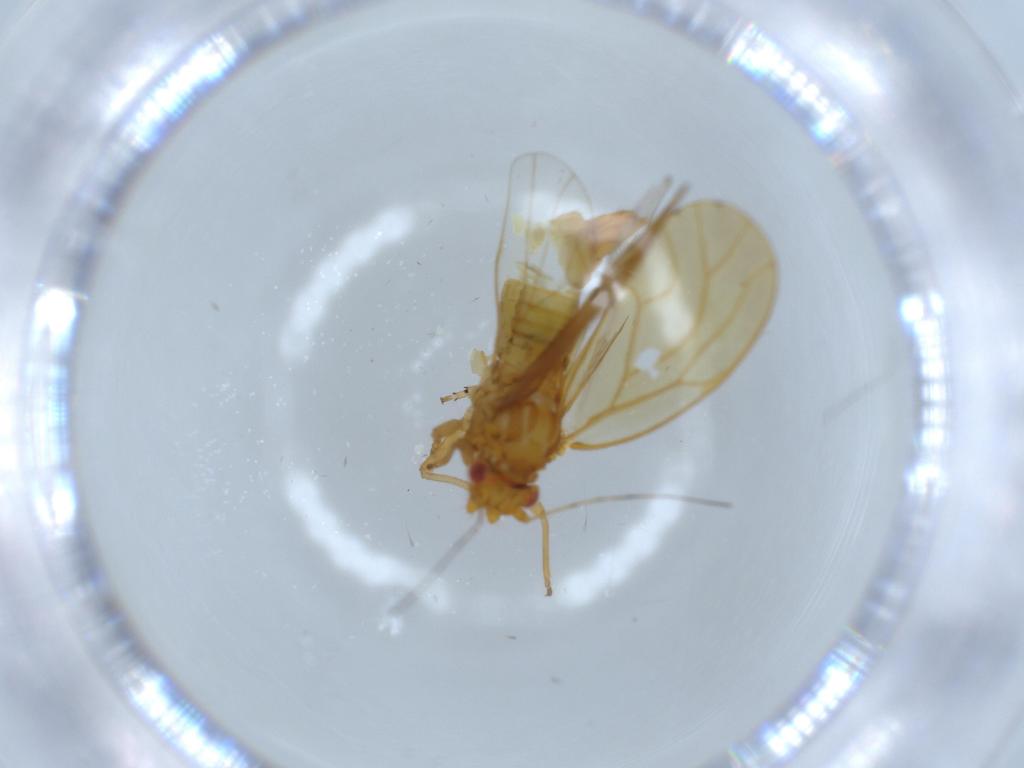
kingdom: Animalia
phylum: Arthropoda
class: Insecta
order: Hemiptera
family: Psylloidea_incertae_sedis
